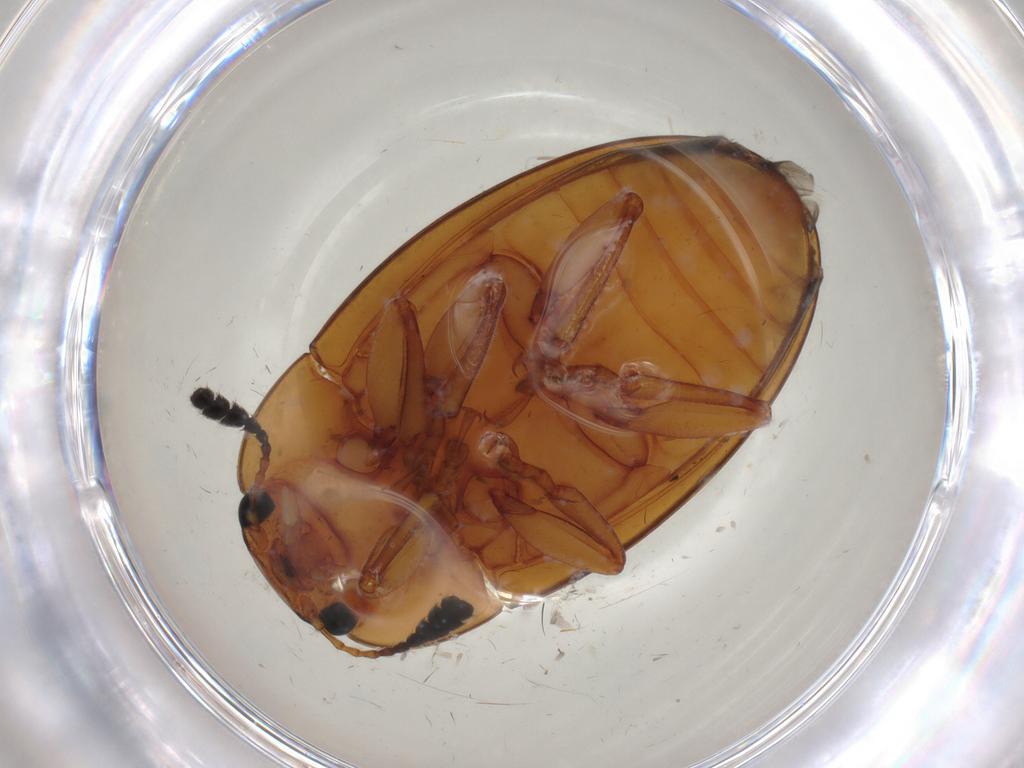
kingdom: Animalia
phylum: Arthropoda
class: Insecta
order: Coleoptera
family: Erotylidae
